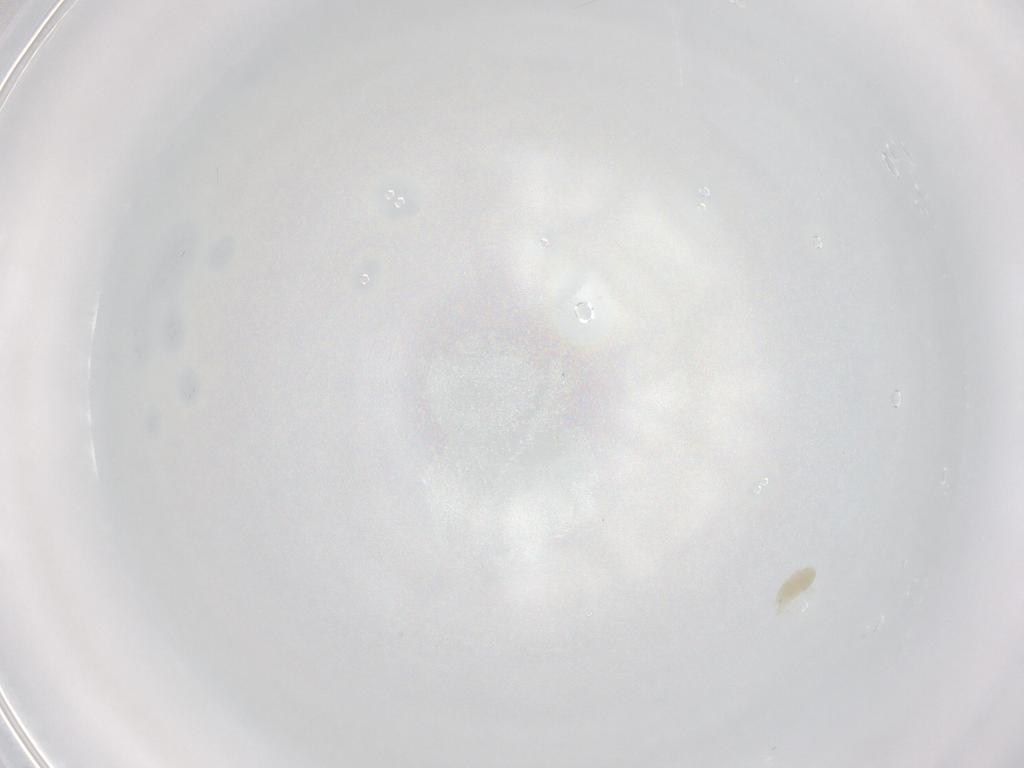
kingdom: Animalia
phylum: Arthropoda
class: Arachnida
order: Trombidiformes
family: Eupodidae
